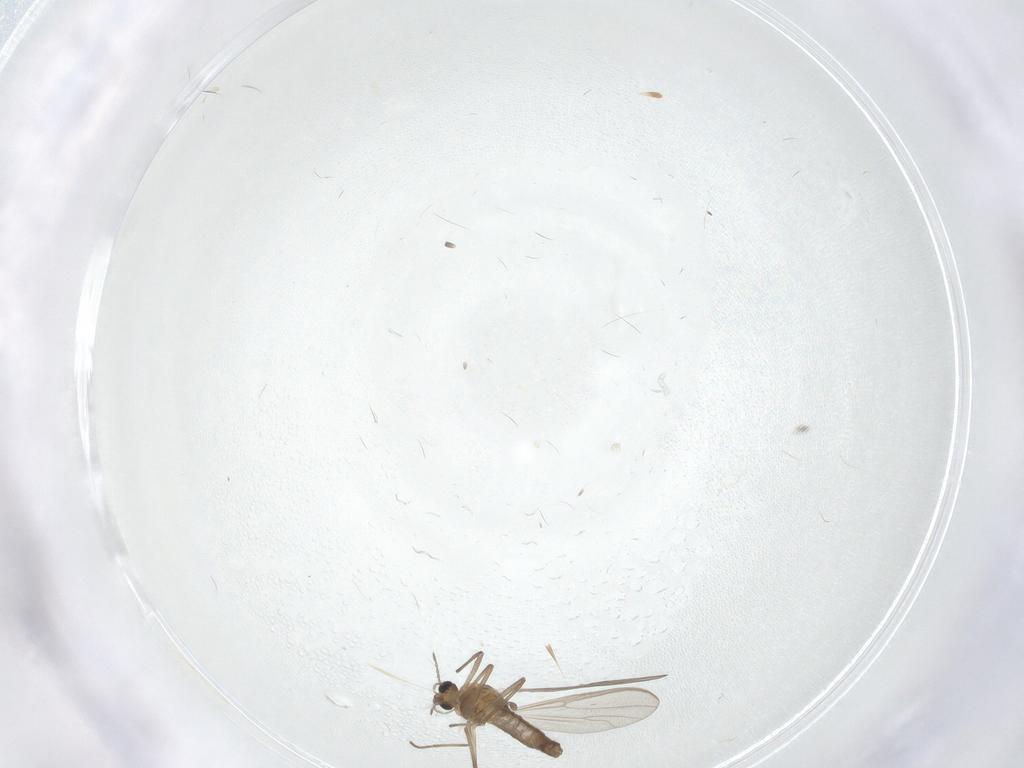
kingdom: Animalia
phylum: Arthropoda
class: Insecta
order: Diptera
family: Chironomidae
